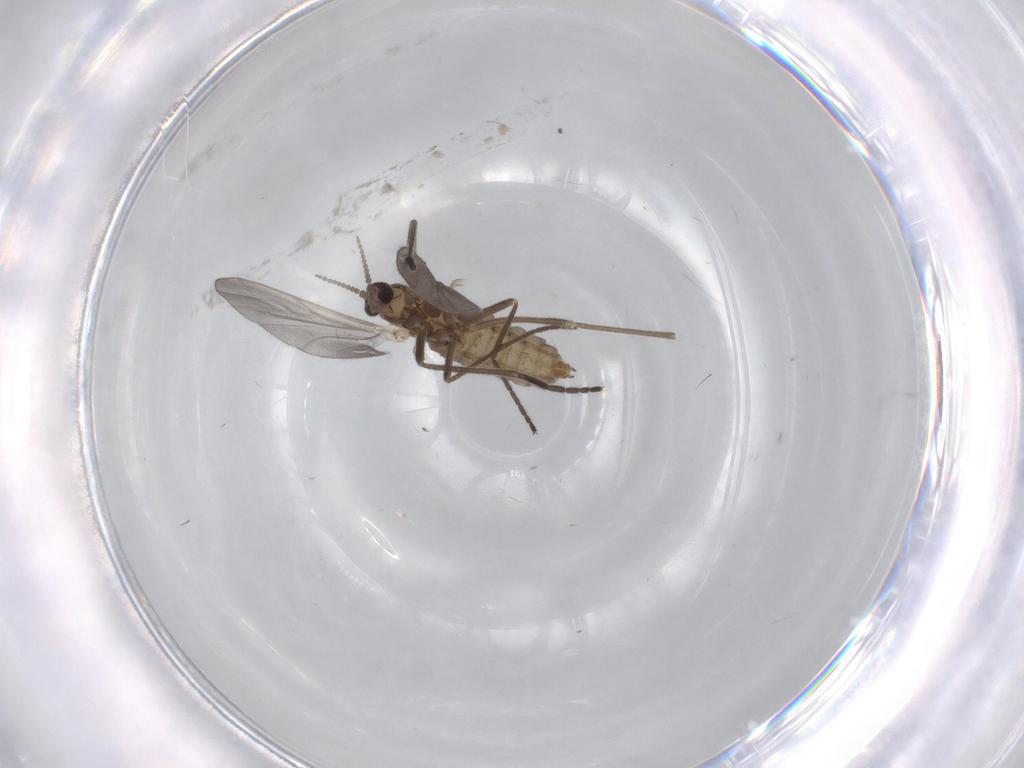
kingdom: Animalia
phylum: Arthropoda
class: Insecta
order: Diptera
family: Cecidomyiidae
